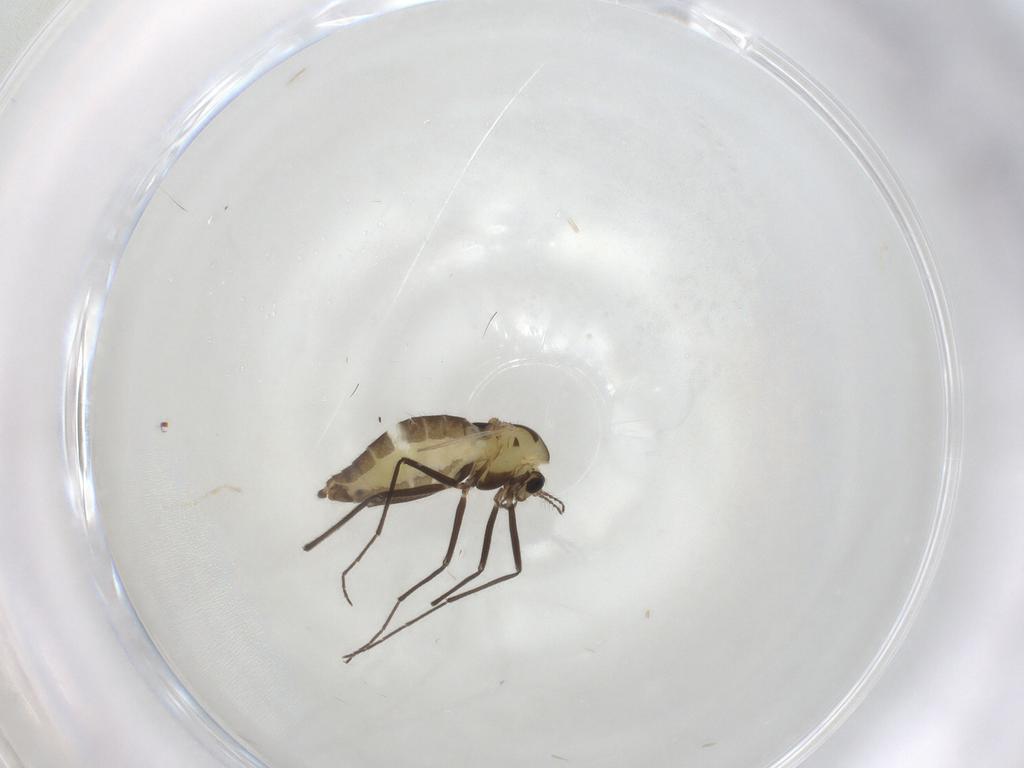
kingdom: Animalia
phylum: Arthropoda
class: Insecta
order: Diptera
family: Chironomidae
